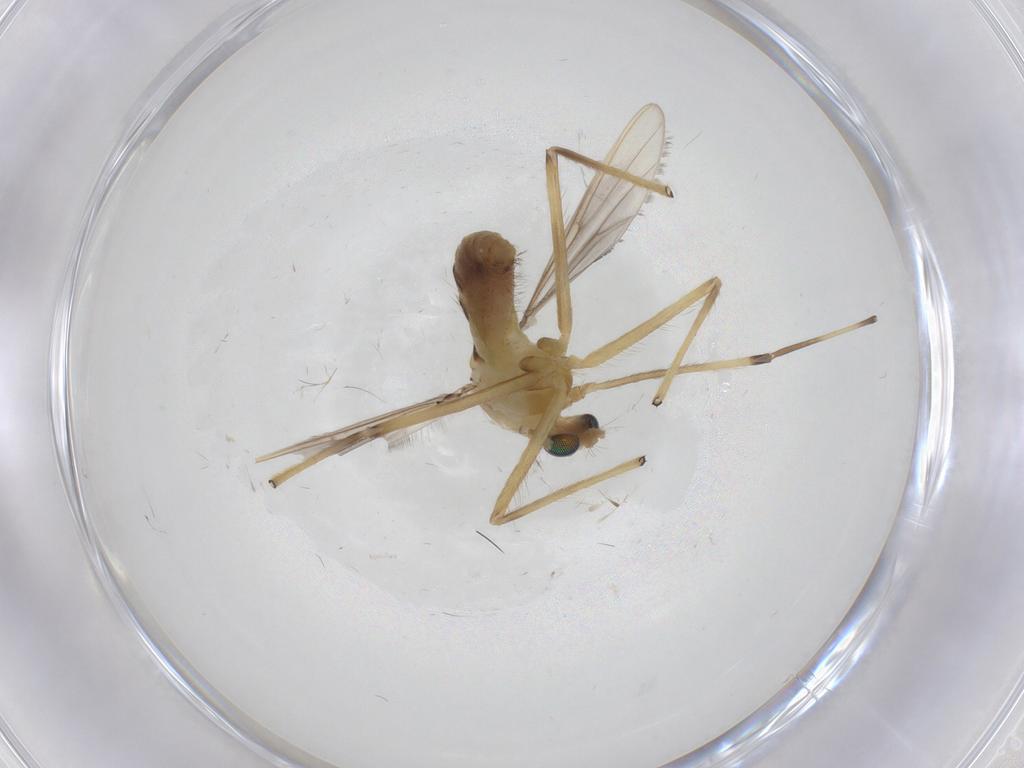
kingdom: Animalia
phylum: Arthropoda
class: Insecta
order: Diptera
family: Chironomidae
